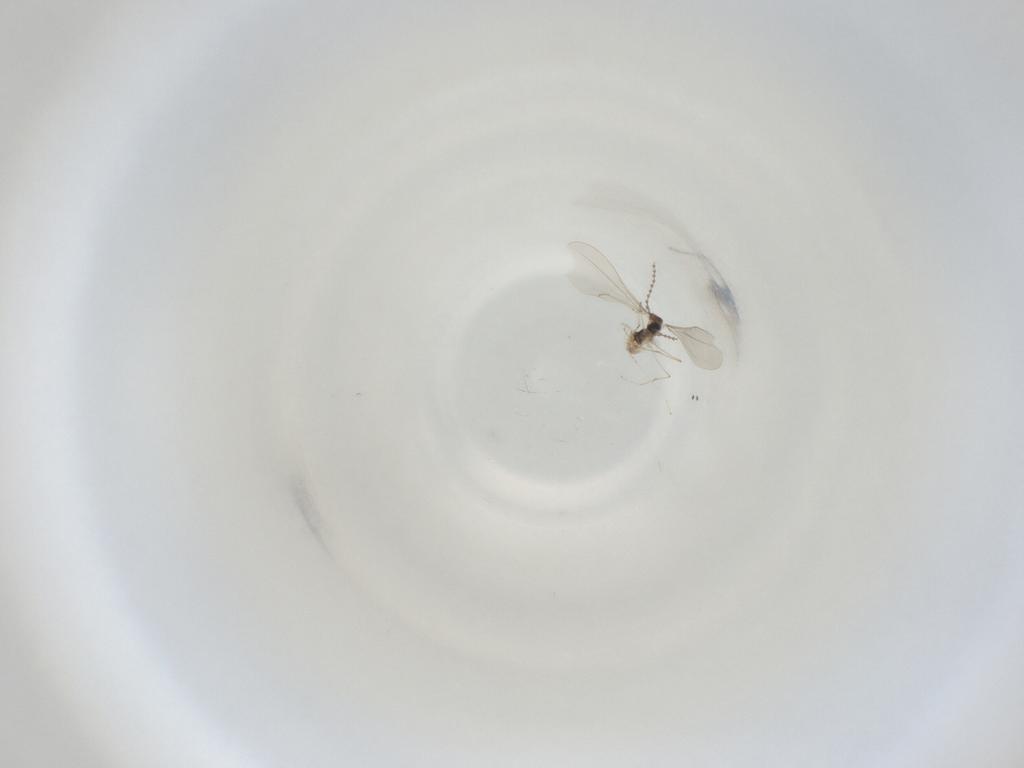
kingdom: Animalia
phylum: Arthropoda
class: Insecta
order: Diptera
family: Cecidomyiidae
